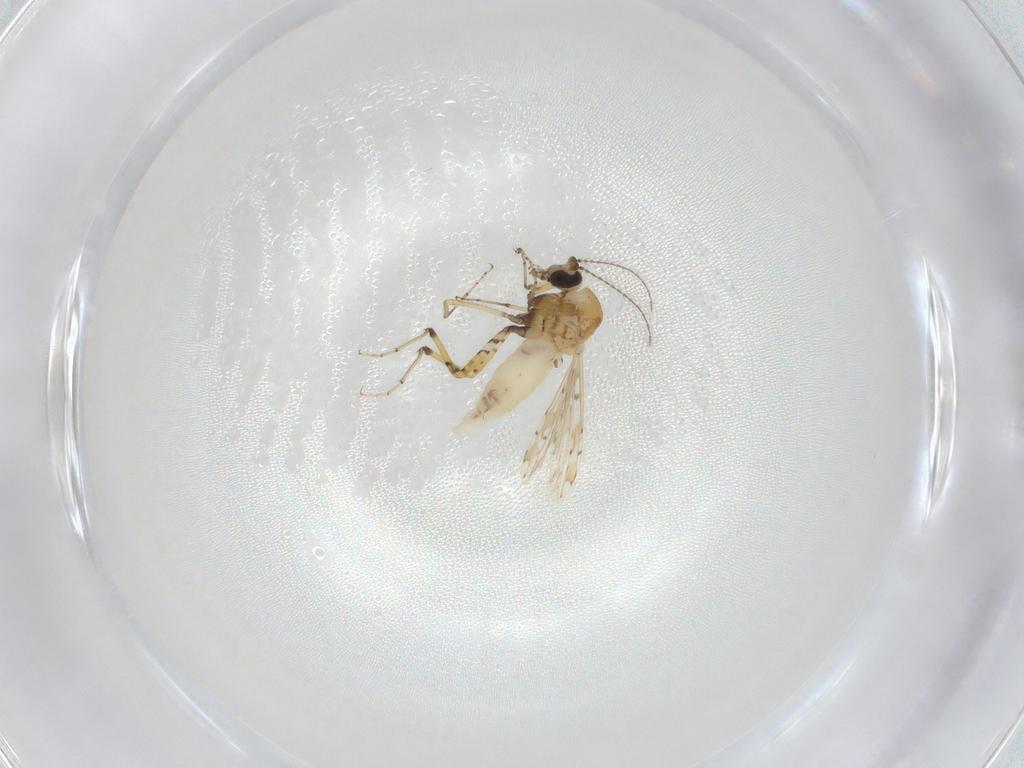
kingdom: Animalia
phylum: Arthropoda
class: Insecta
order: Diptera
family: Ceratopogonidae
